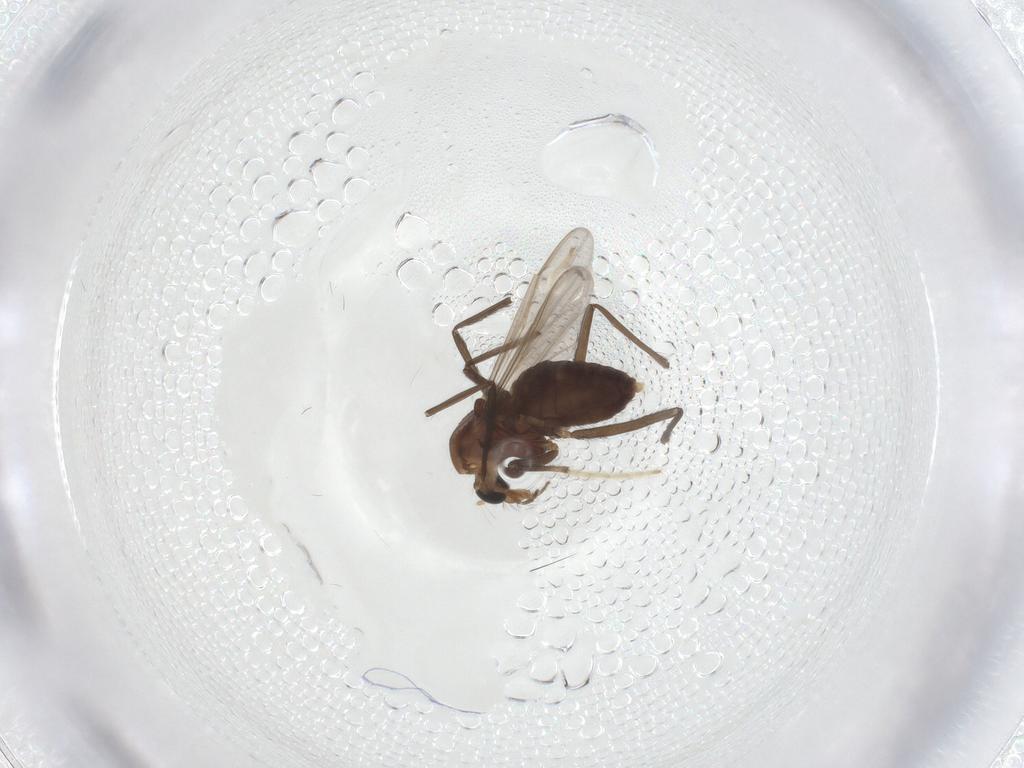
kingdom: Animalia
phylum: Arthropoda
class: Insecta
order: Diptera
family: Chironomidae
